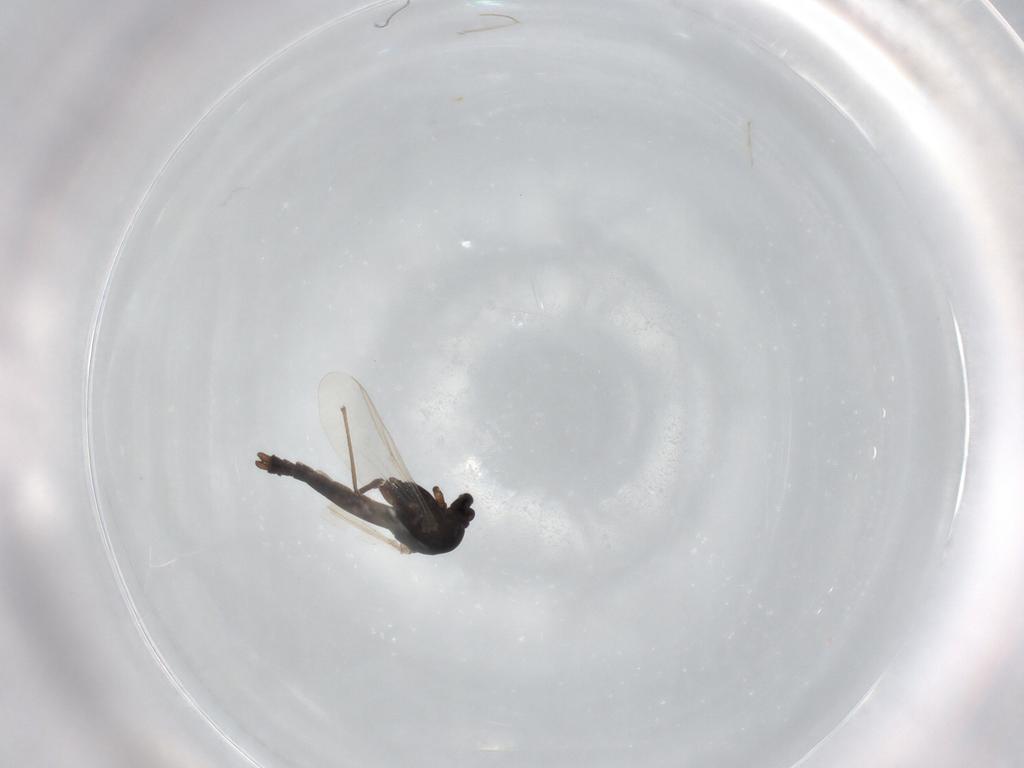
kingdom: Animalia
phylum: Arthropoda
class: Insecta
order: Diptera
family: Chironomidae
